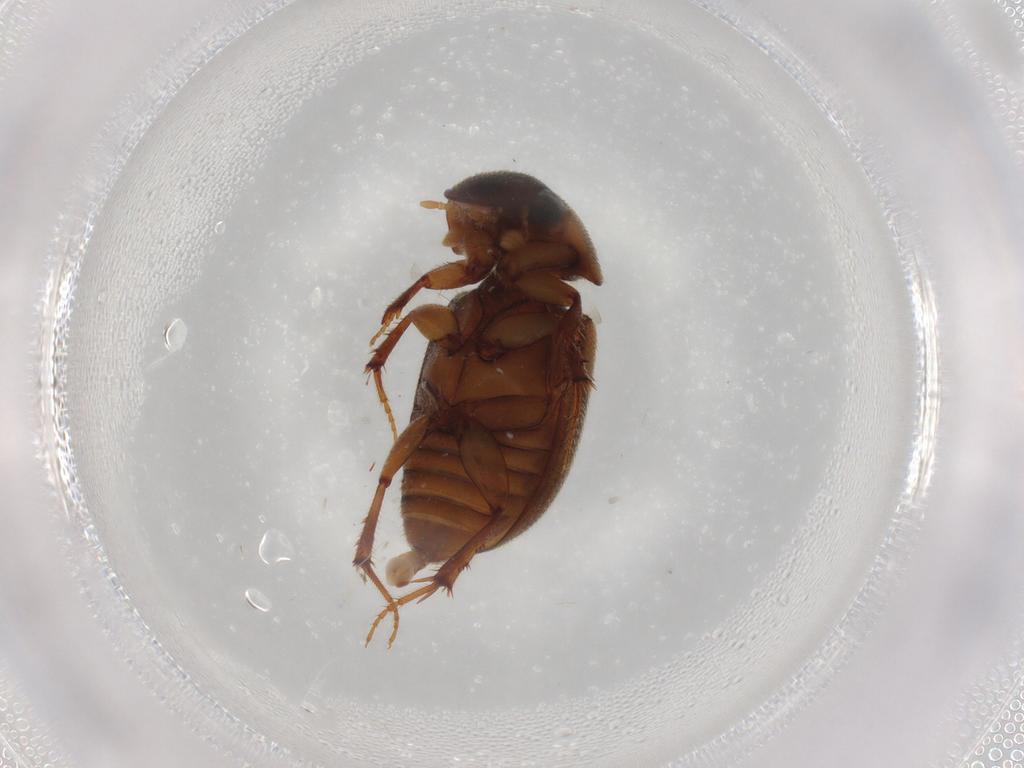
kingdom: Animalia
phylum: Arthropoda
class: Insecta
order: Coleoptera
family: Scarabaeidae
